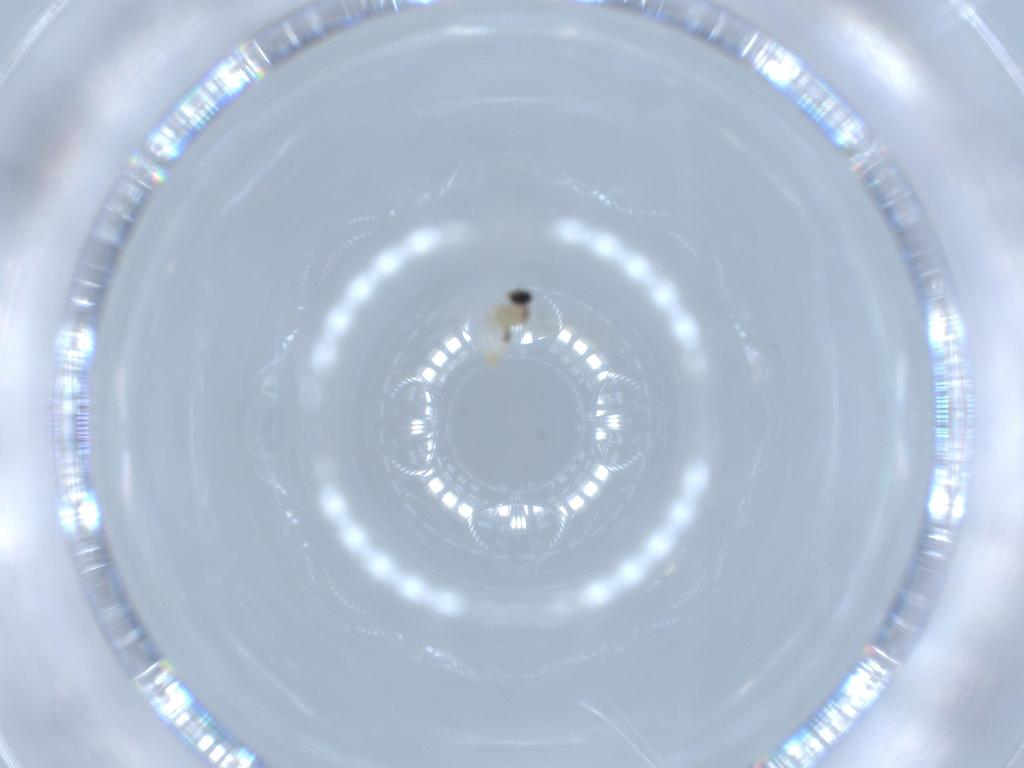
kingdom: Animalia
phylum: Arthropoda
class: Insecta
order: Diptera
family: Cecidomyiidae
